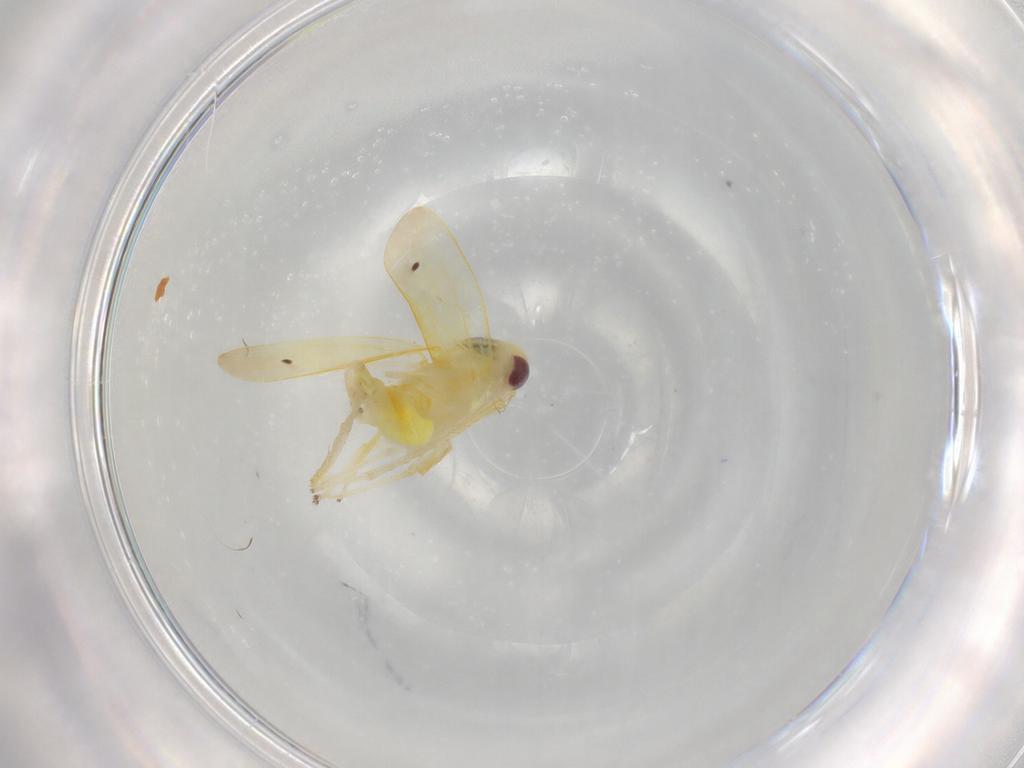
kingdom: Animalia
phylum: Arthropoda
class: Insecta
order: Hemiptera
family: Cicadellidae
